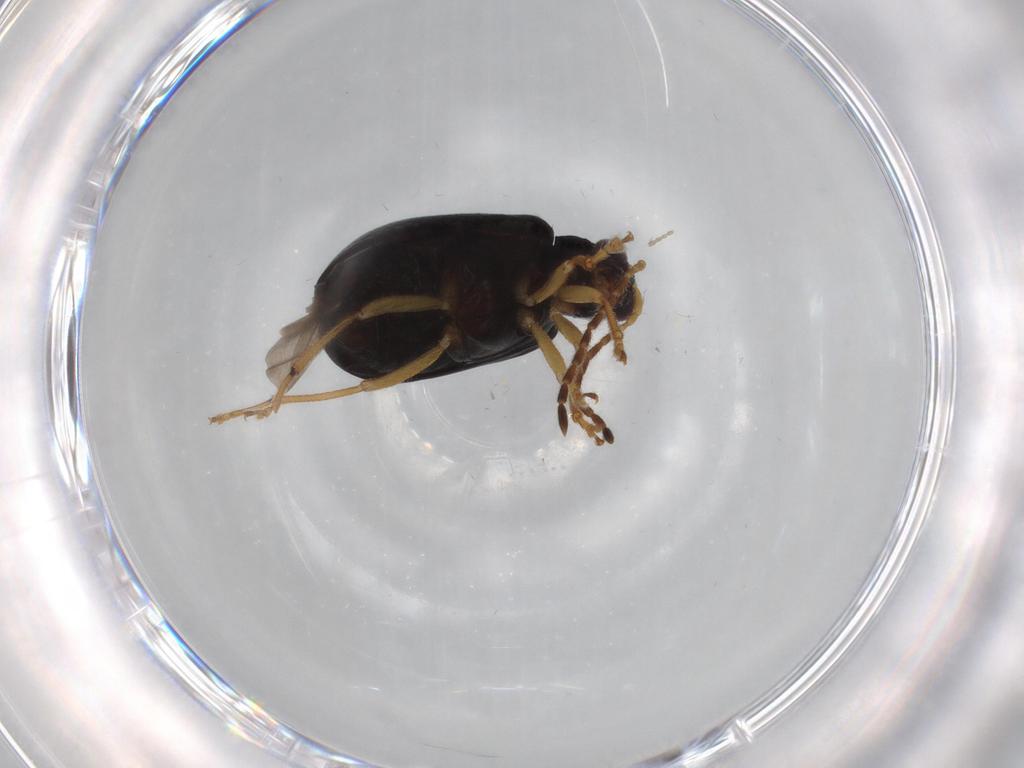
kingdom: Animalia
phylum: Arthropoda
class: Insecta
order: Coleoptera
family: Chrysomelidae
